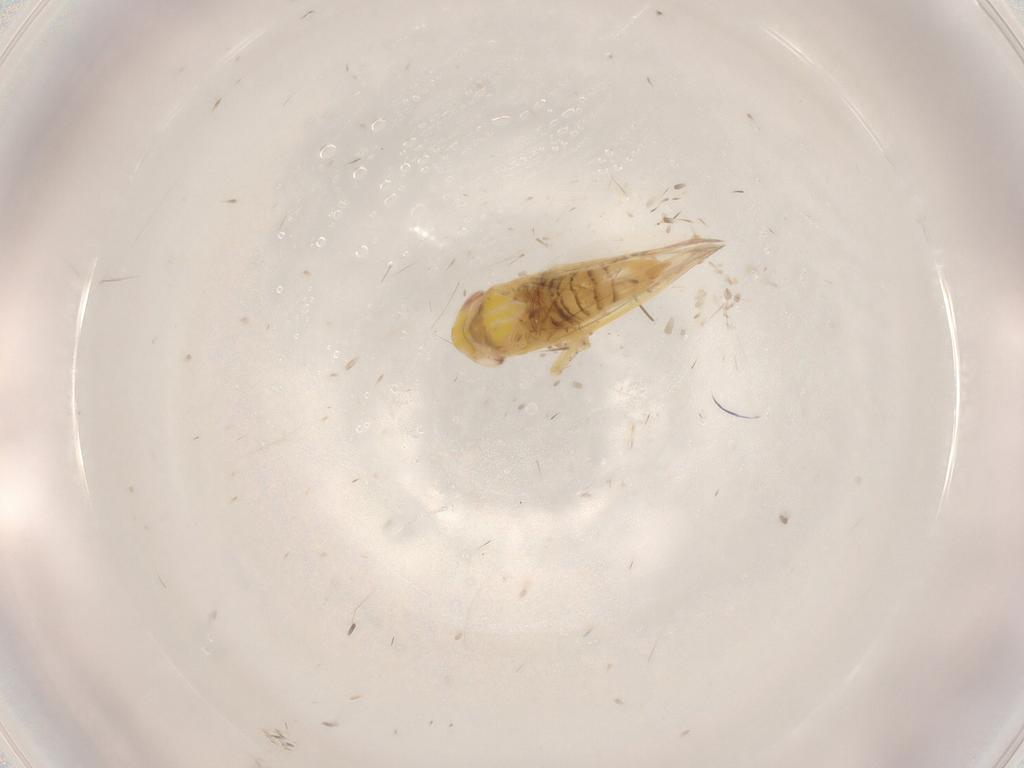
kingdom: Animalia
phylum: Arthropoda
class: Insecta
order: Hemiptera
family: Cicadellidae
